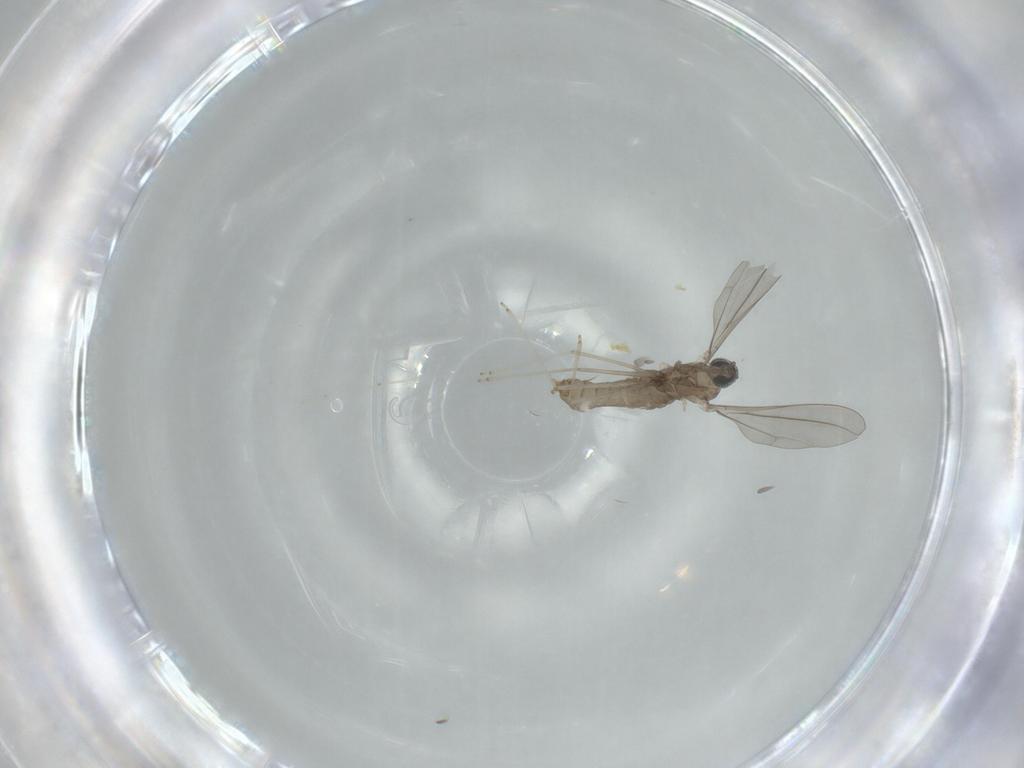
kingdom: Animalia
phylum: Arthropoda
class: Insecta
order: Diptera
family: Cecidomyiidae
